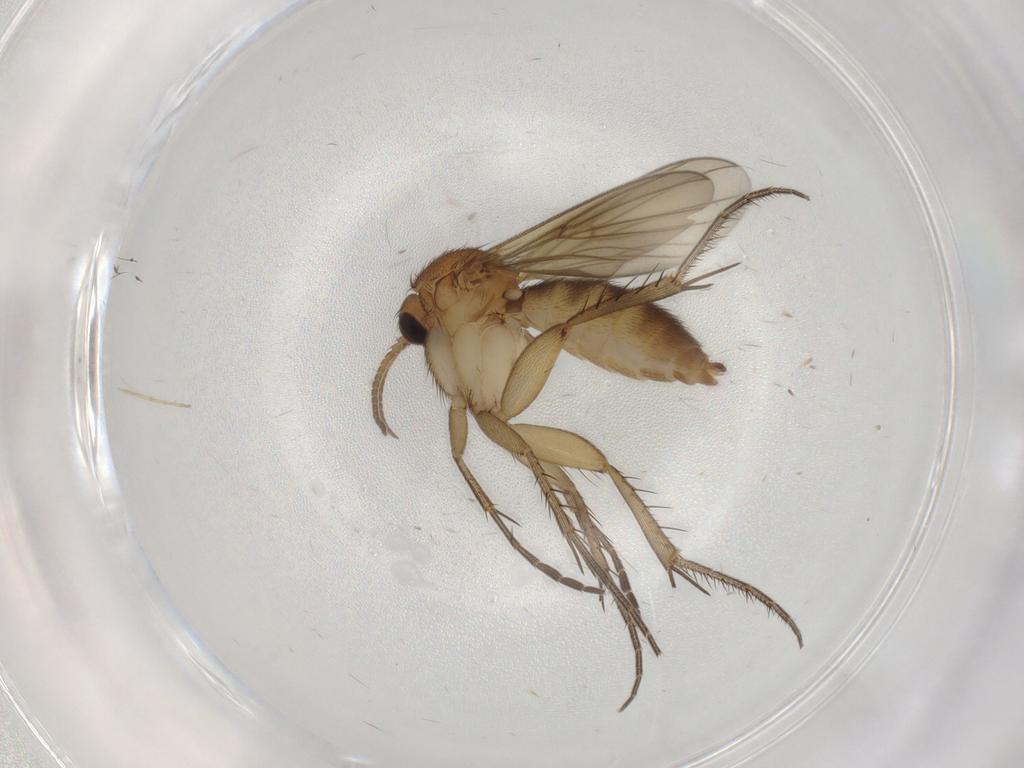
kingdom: Animalia
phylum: Arthropoda
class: Insecta
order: Diptera
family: Mycetophilidae
